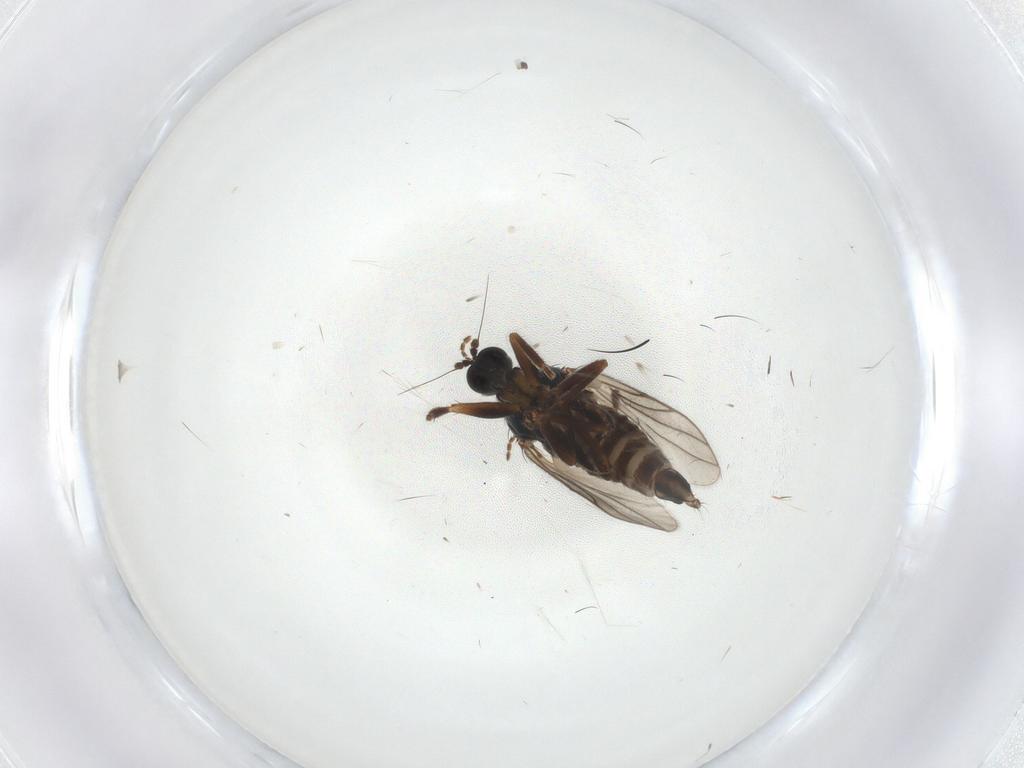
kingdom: Animalia
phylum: Arthropoda
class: Insecta
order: Diptera
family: Limoniidae
